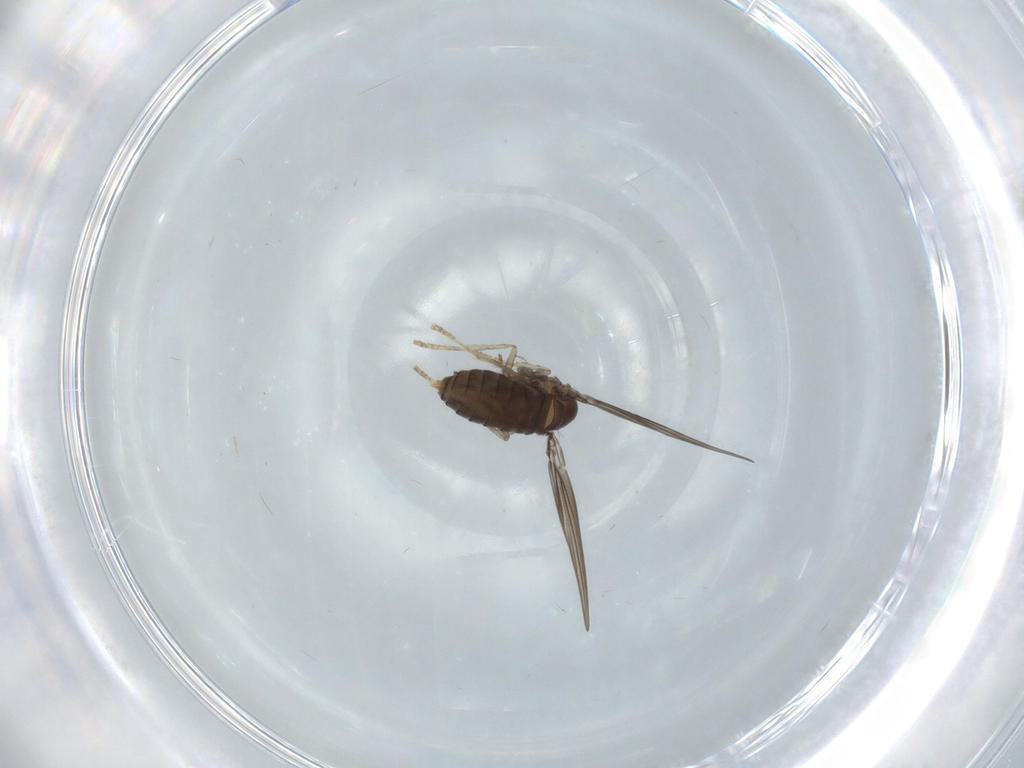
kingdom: Animalia
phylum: Arthropoda
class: Insecta
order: Diptera
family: Psychodidae
